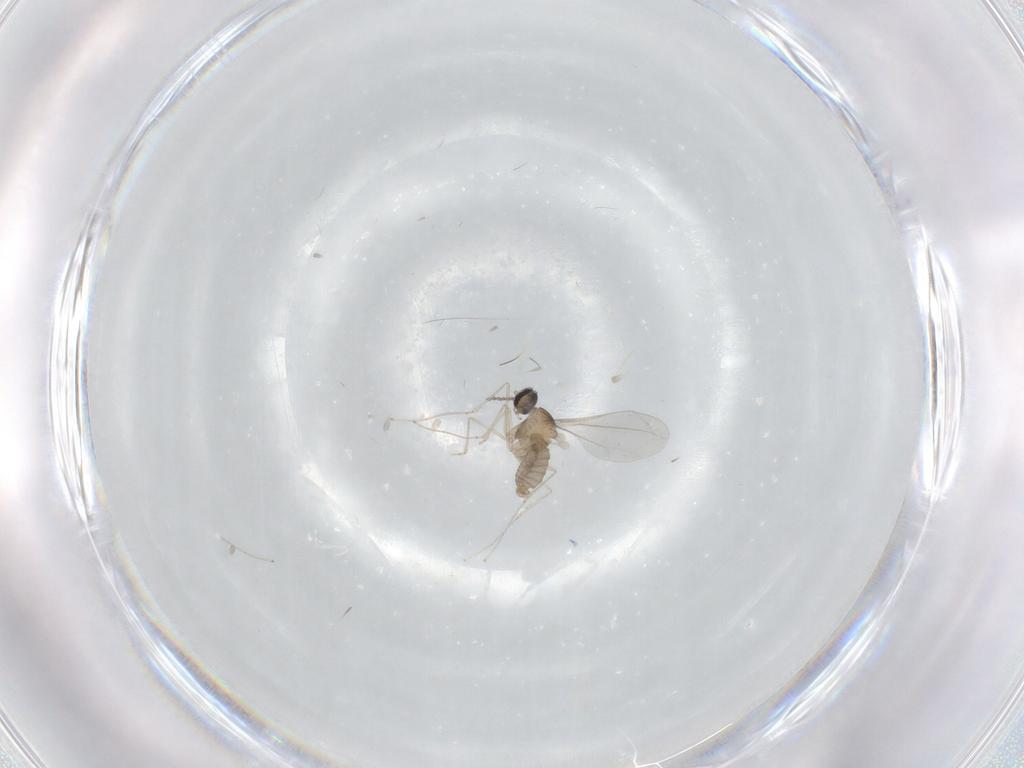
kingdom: Animalia
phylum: Arthropoda
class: Insecta
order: Diptera
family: Cecidomyiidae
